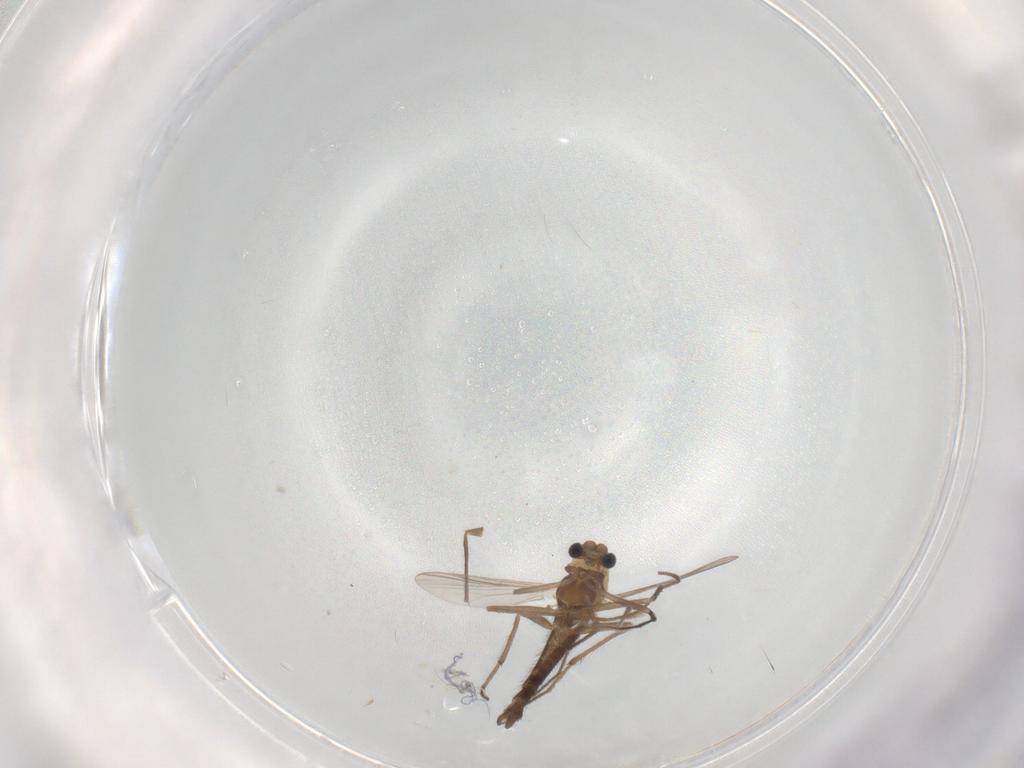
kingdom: Animalia
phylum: Arthropoda
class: Insecta
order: Diptera
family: Chironomidae
